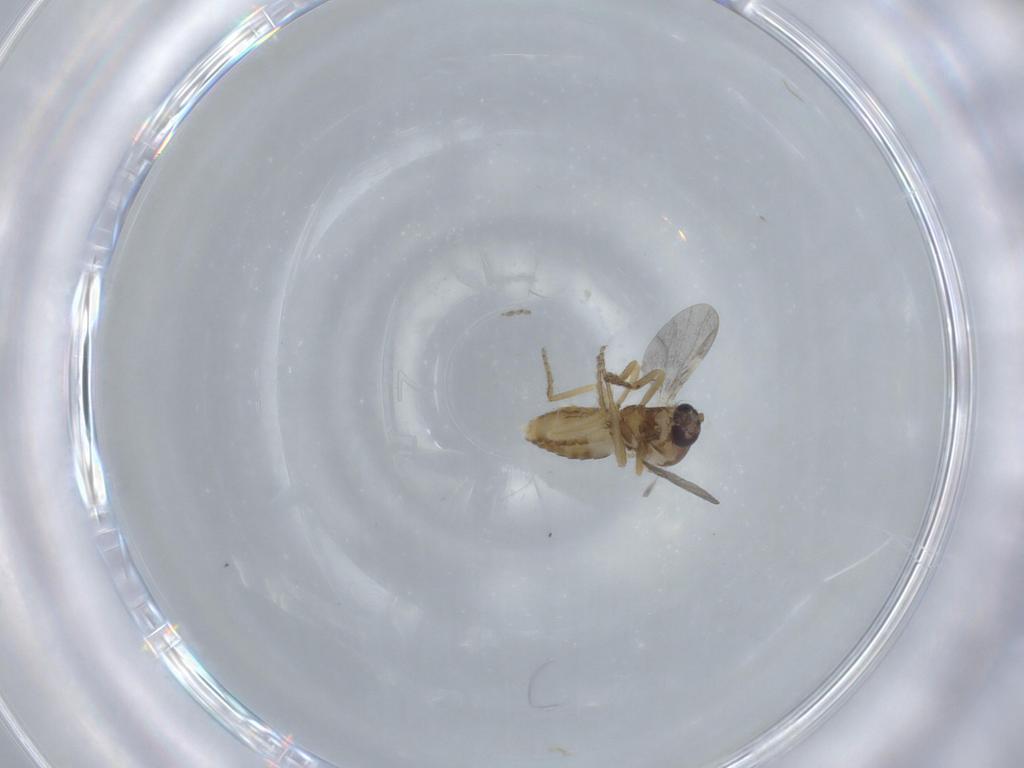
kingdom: Animalia
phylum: Arthropoda
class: Insecta
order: Diptera
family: Ceratopogonidae
